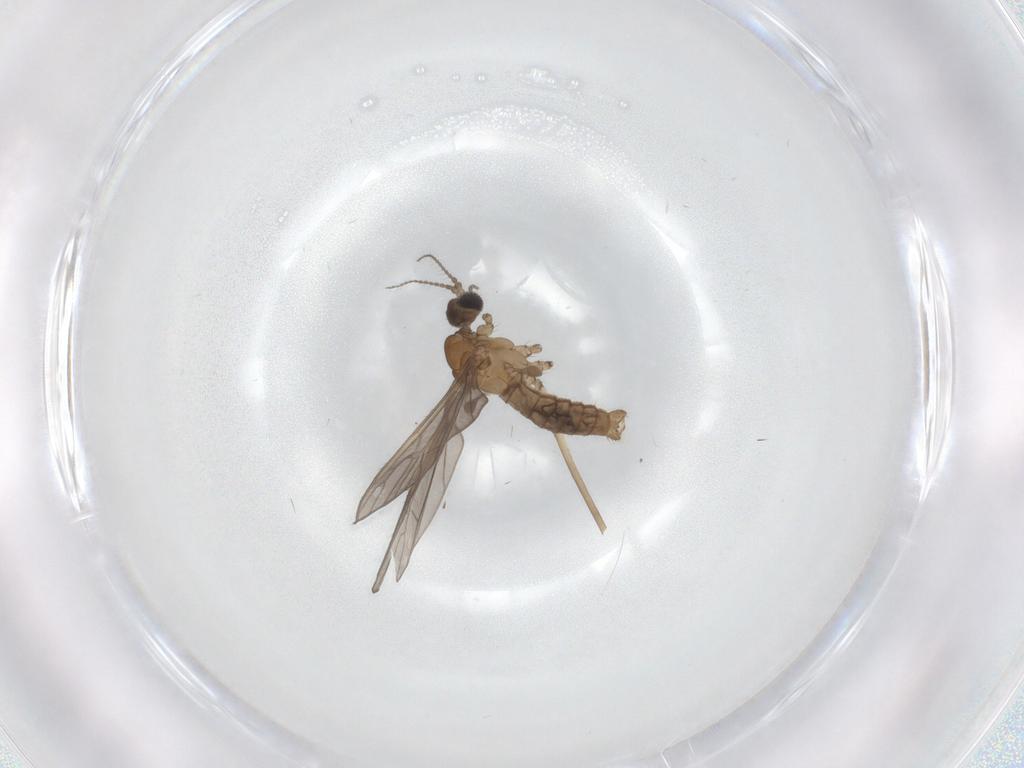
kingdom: Animalia
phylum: Arthropoda
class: Insecta
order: Diptera
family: Limoniidae
